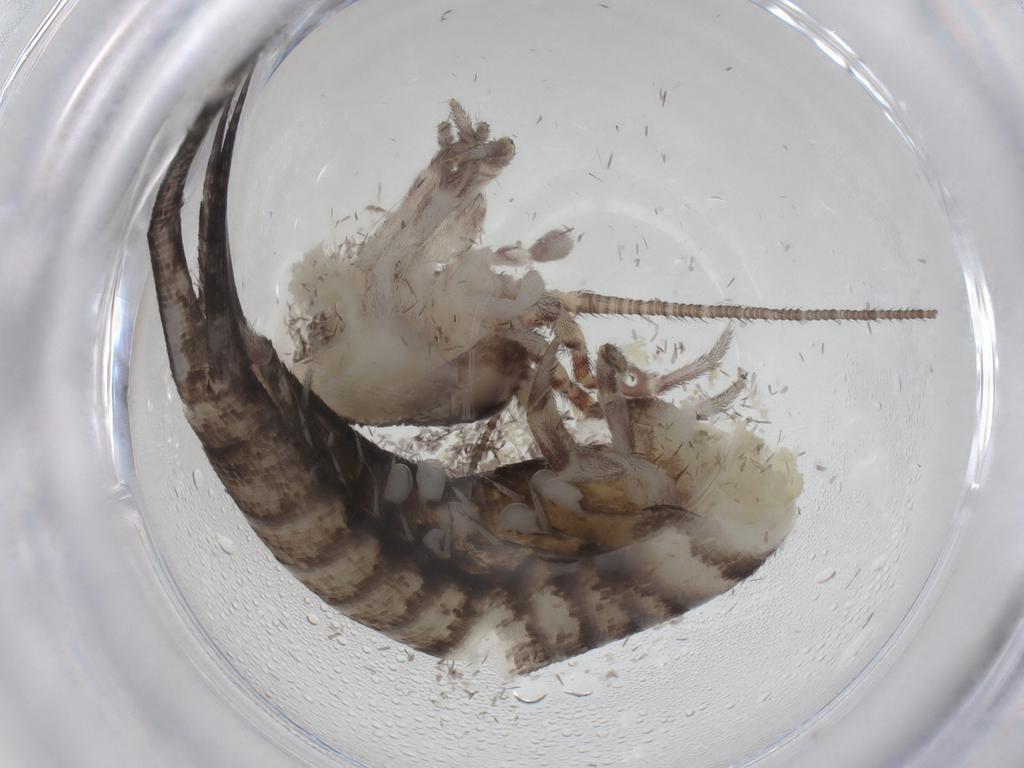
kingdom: Animalia
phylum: Arthropoda
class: Insecta
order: Archaeognatha
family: Machilidae
